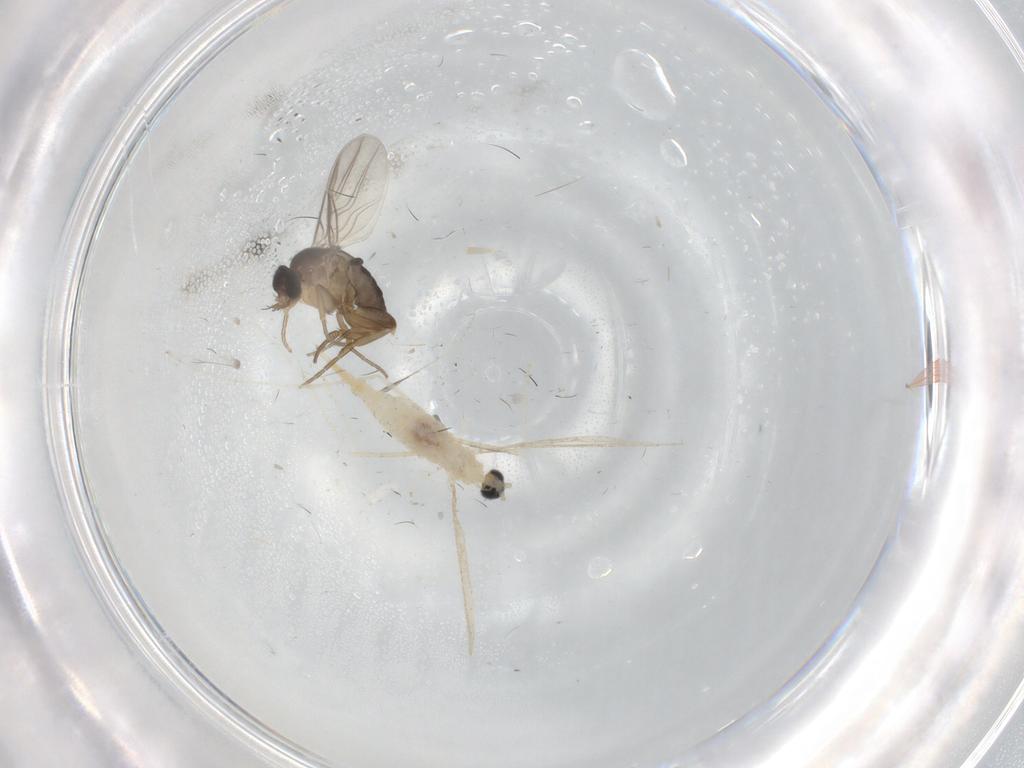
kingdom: Animalia
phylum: Arthropoda
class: Insecta
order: Diptera
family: Phoridae
